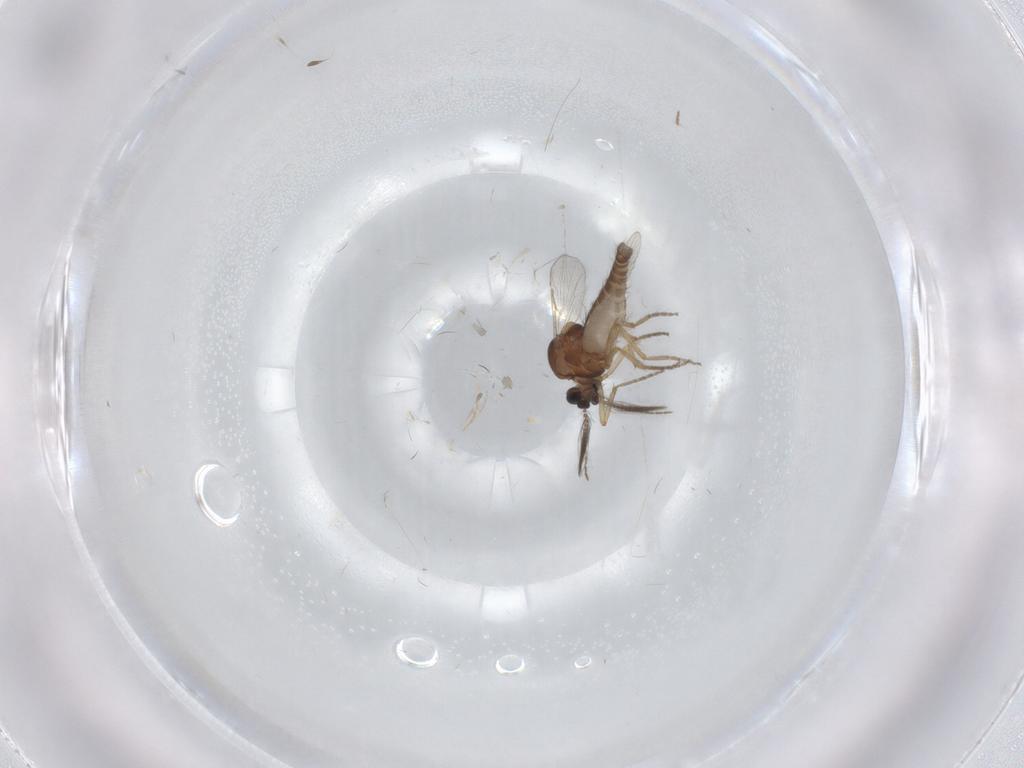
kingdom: Animalia
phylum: Arthropoda
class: Insecta
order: Diptera
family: Chironomidae
